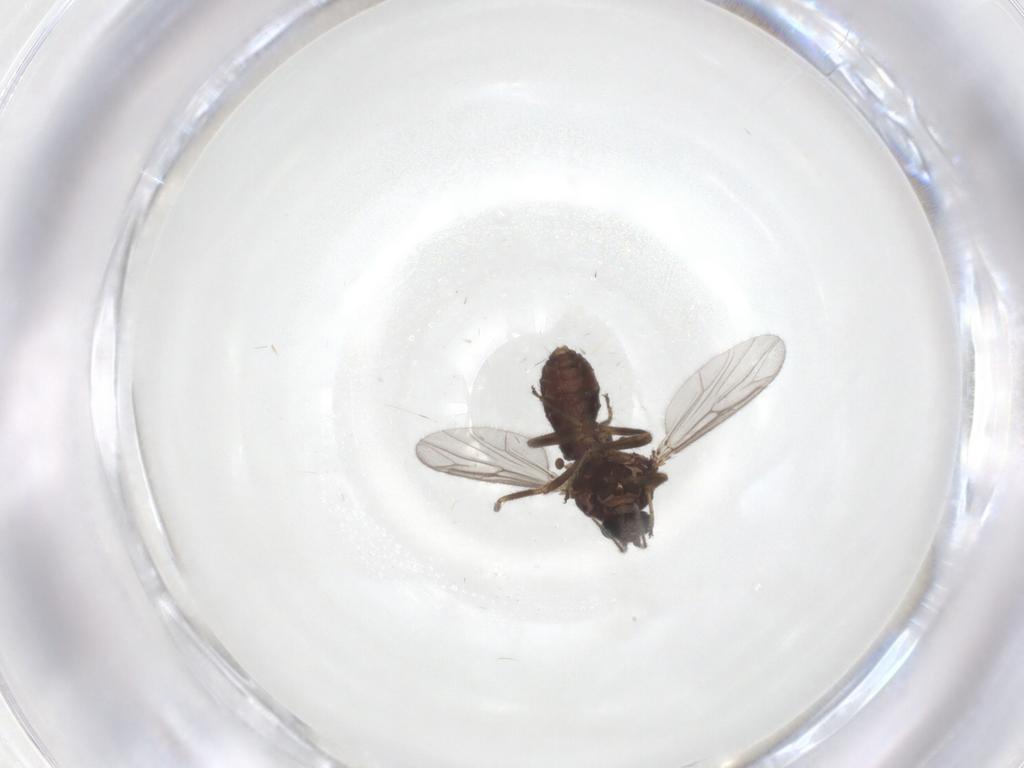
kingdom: Animalia
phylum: Arthropoda
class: Insecta
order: Diptera
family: Ceratopogonidae
